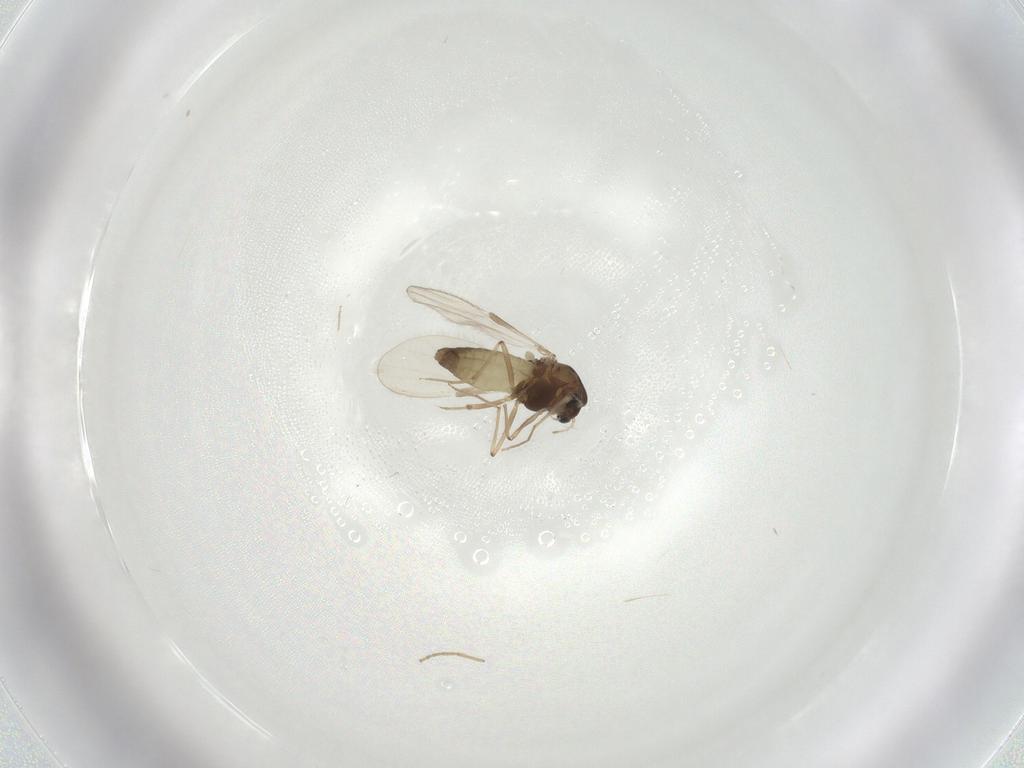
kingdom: Animalia
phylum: Arthropoda
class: Insecta
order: Diptera
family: Chironomidae
